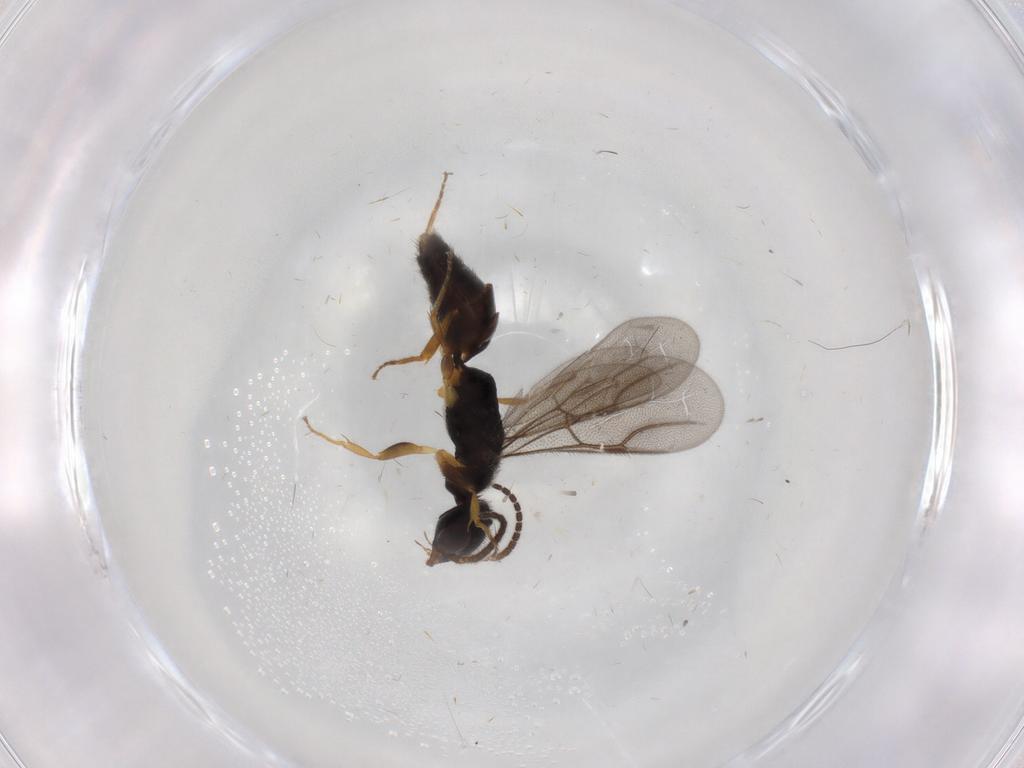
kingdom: Animalia
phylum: Arthropoda
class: Insecta
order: Hymenoptera
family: Bethylidae
